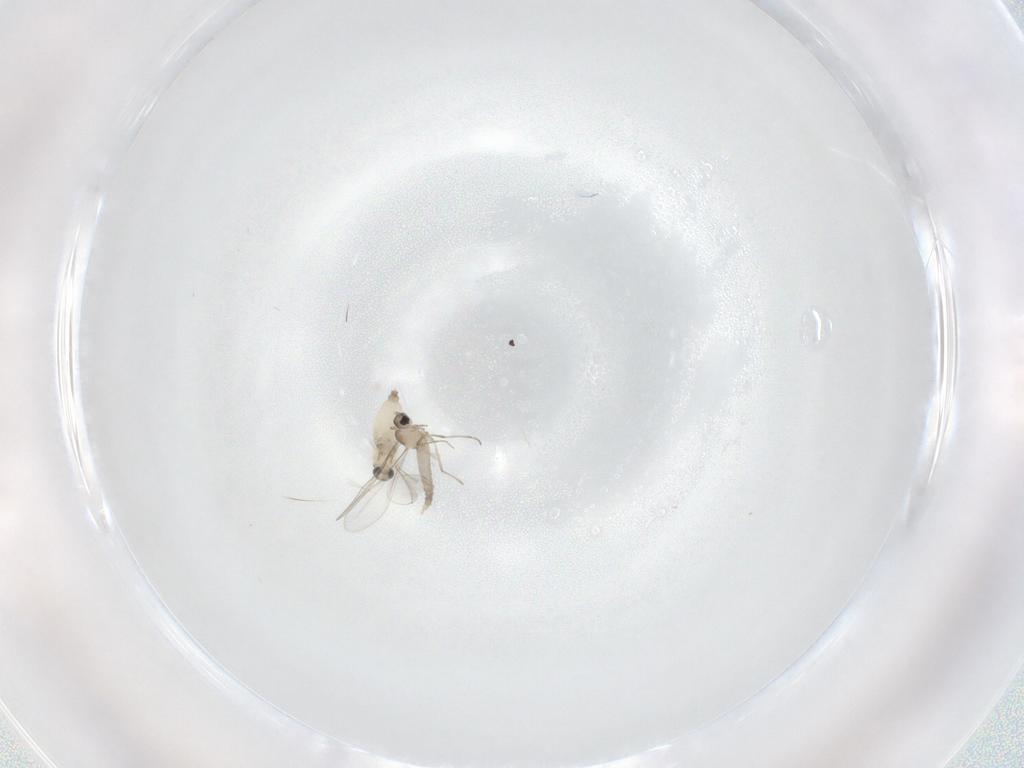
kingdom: Animalia
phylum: Arthropoda
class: Insecta
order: Diptera
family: Cecidomyiidae
